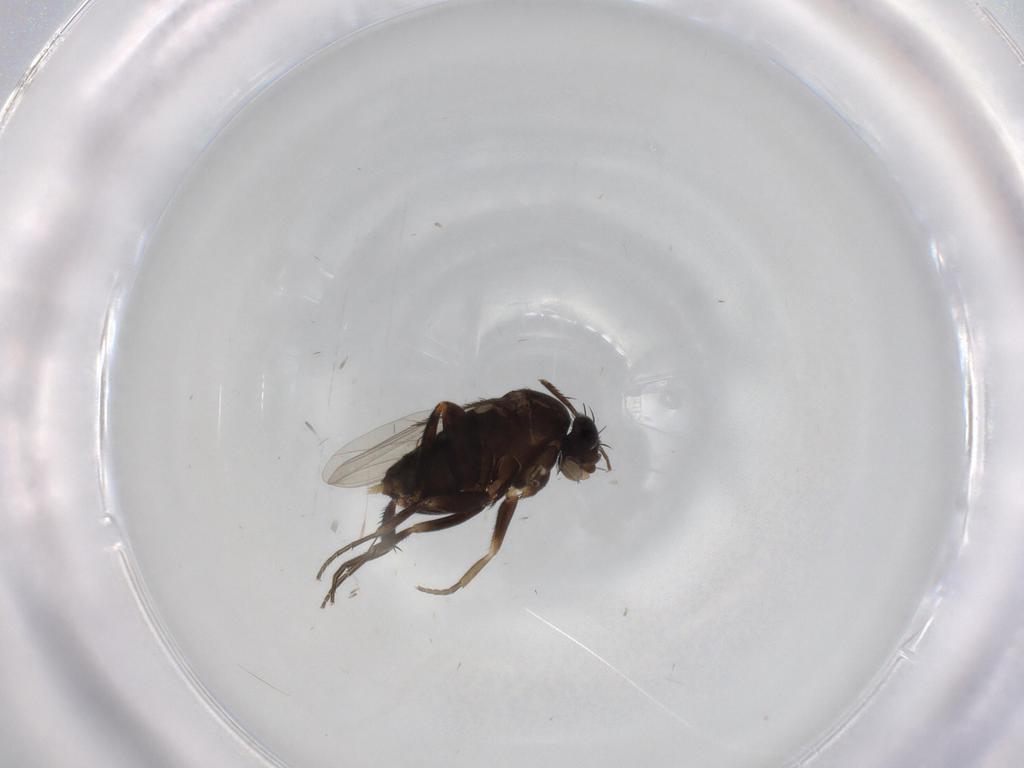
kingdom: Animalia
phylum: Arthropoda
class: Insecta
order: Diptera
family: Phoridae
